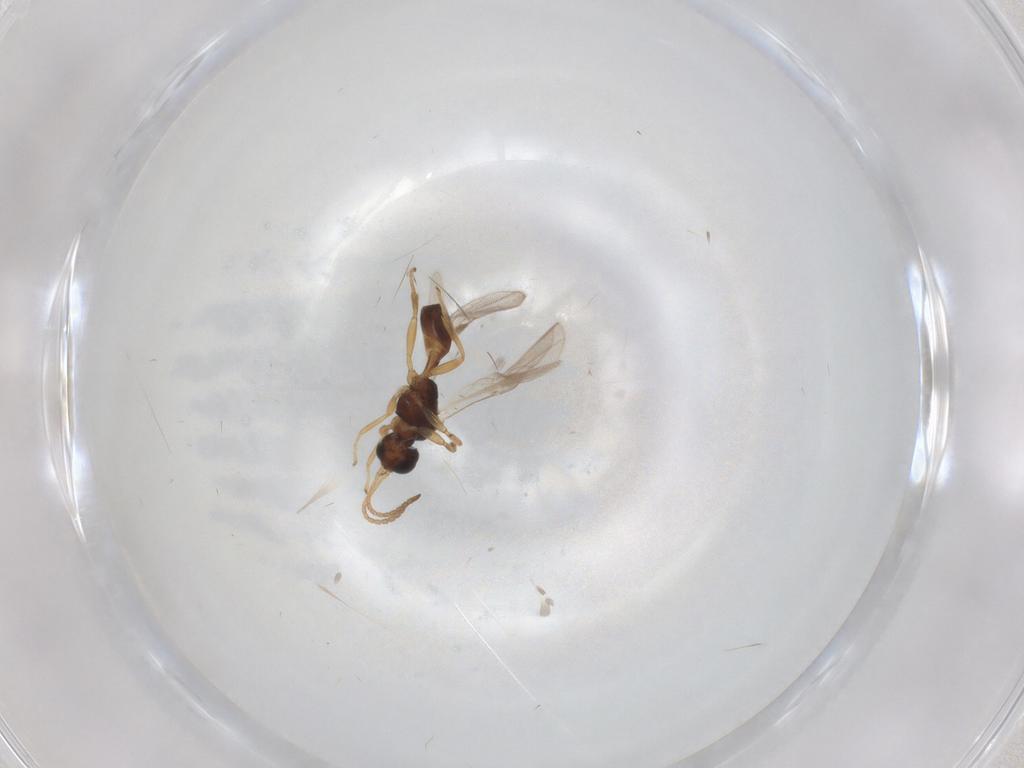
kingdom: Animalia
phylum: Arthropoda
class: Insecta
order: Hymenoptera
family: Braconidae
